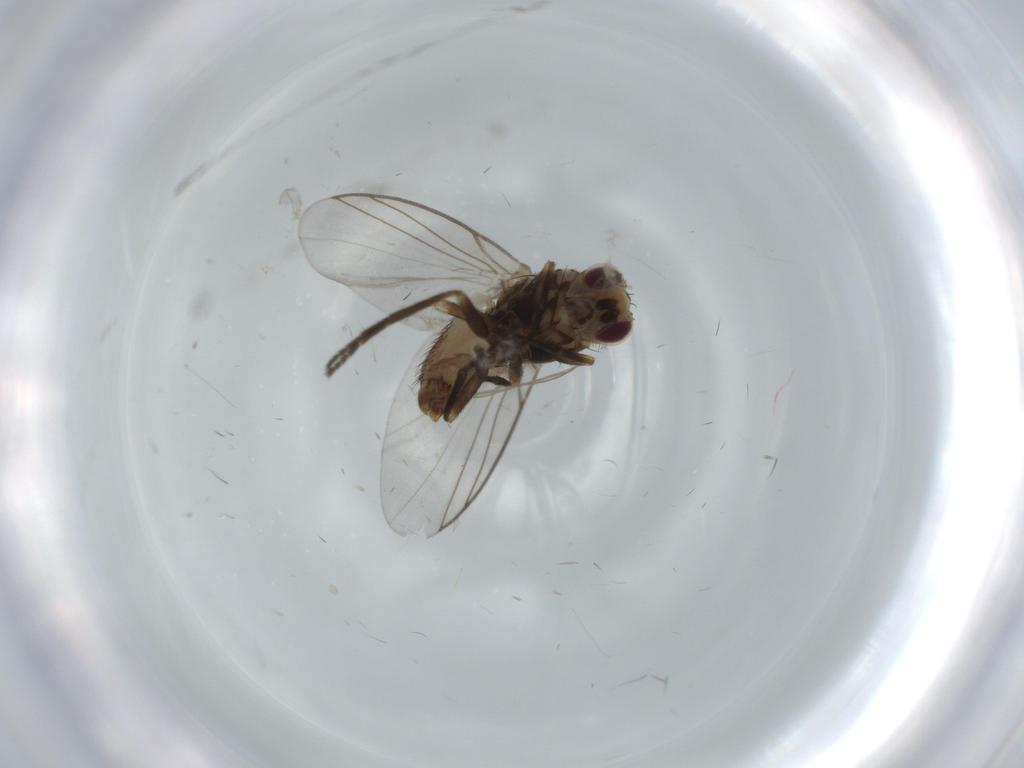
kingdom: Animalia
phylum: Arthropoda
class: Insecta
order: Diptera
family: Agromyzidae
